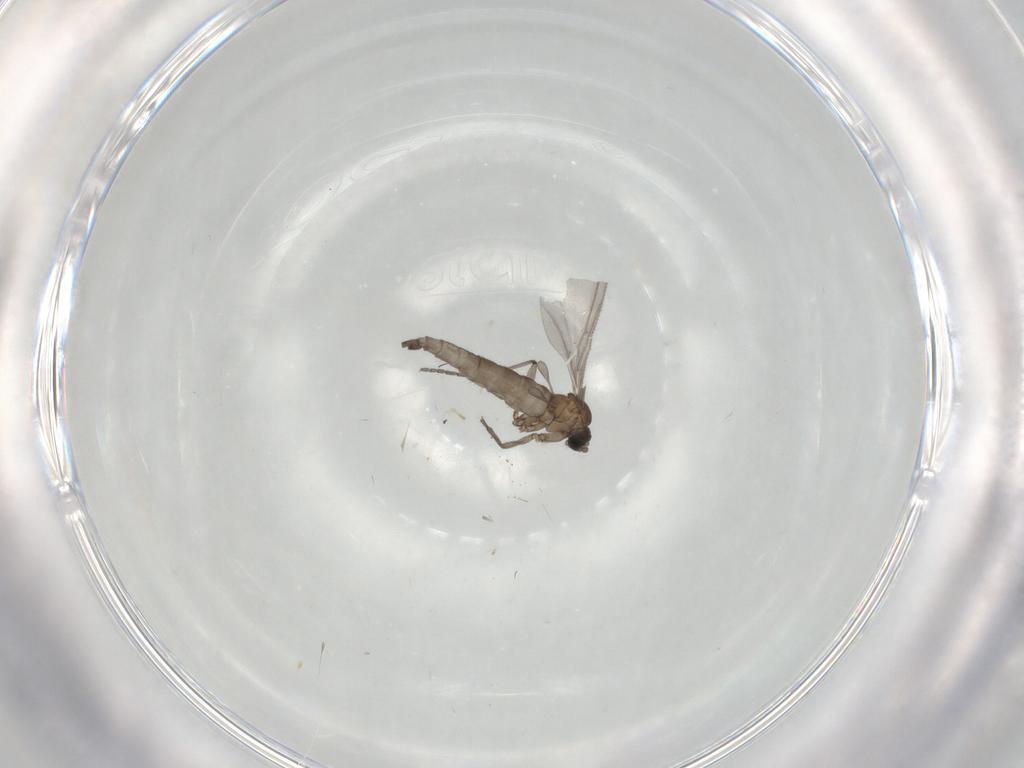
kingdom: Animalia
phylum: Arthropoda
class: Insecta
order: Diptera
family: Sciaridae
